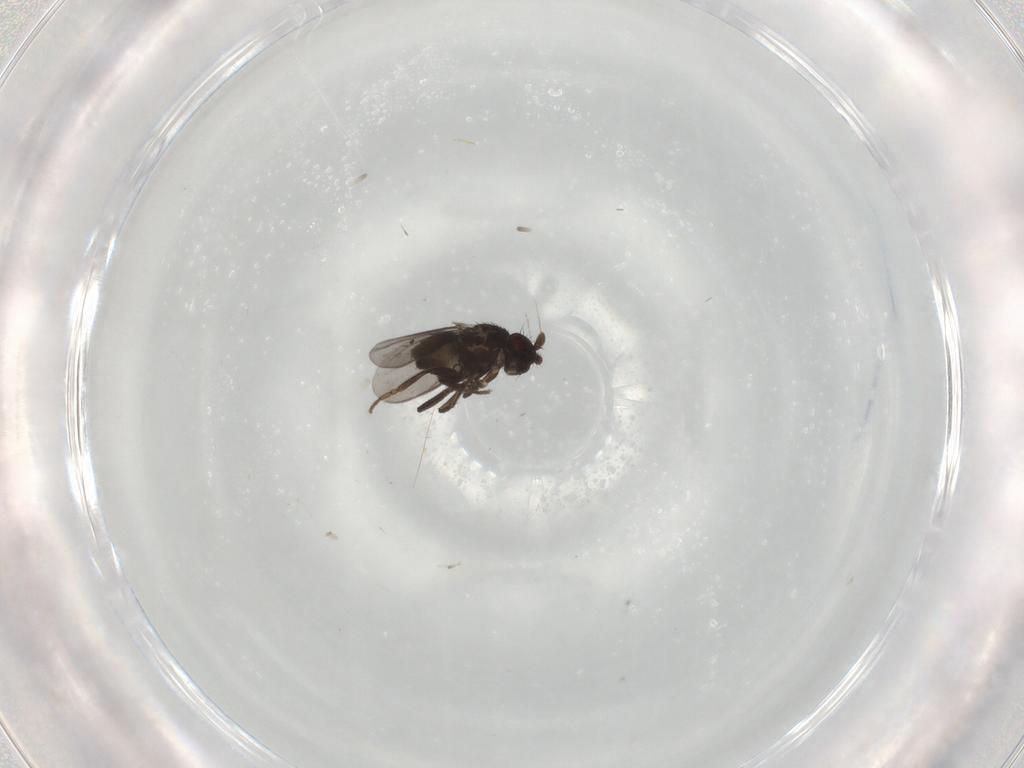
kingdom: Animalia
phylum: Arthropoda
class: Insecta
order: Diptera
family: Sphaeroceridae
